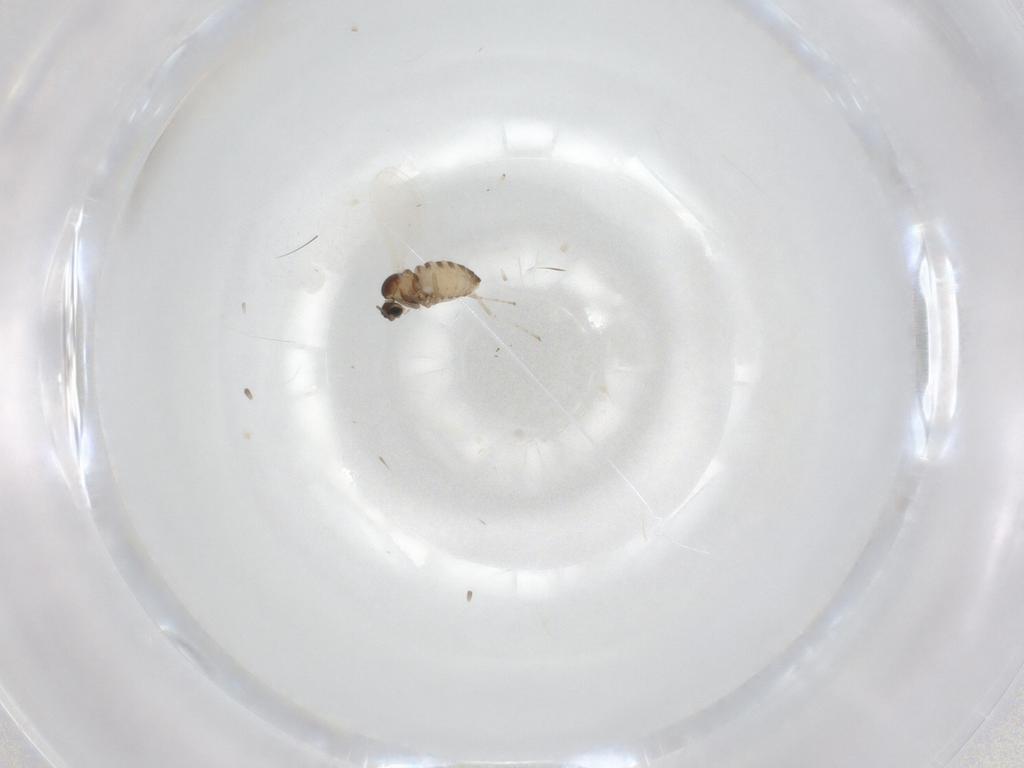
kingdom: Animalia
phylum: Arthropoda
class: Insecta
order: Diptera
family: Cecidomyiidae
